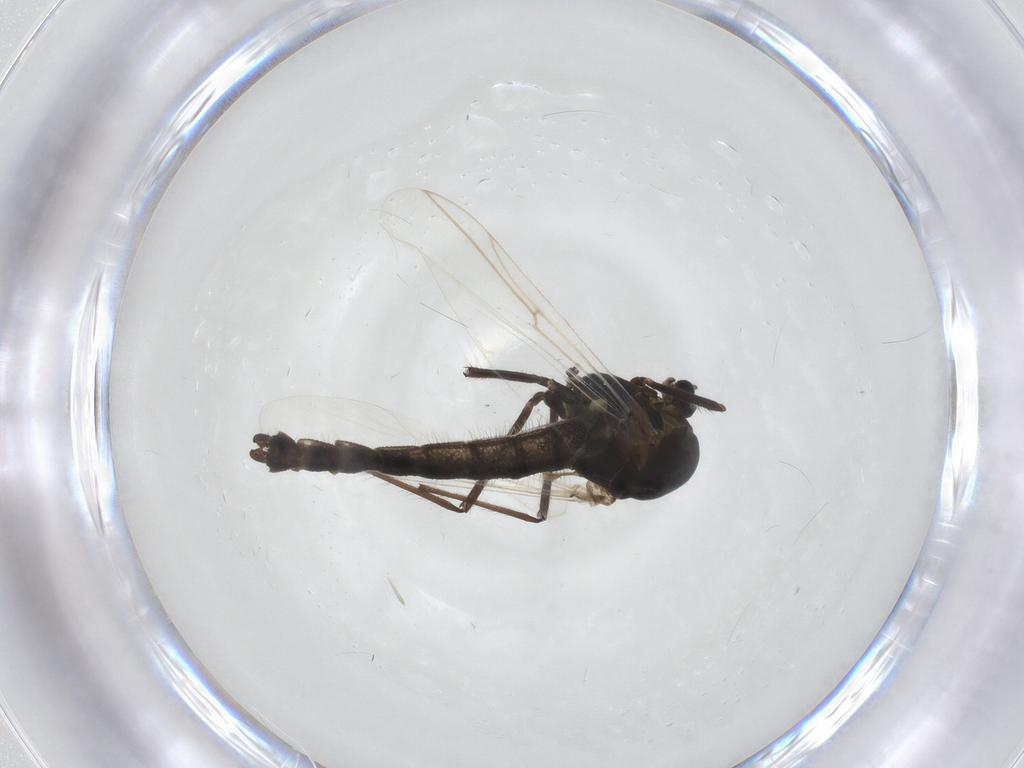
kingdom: Animalia
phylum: Arthropoda
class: Insecta
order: Diptera
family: Chironomidae
